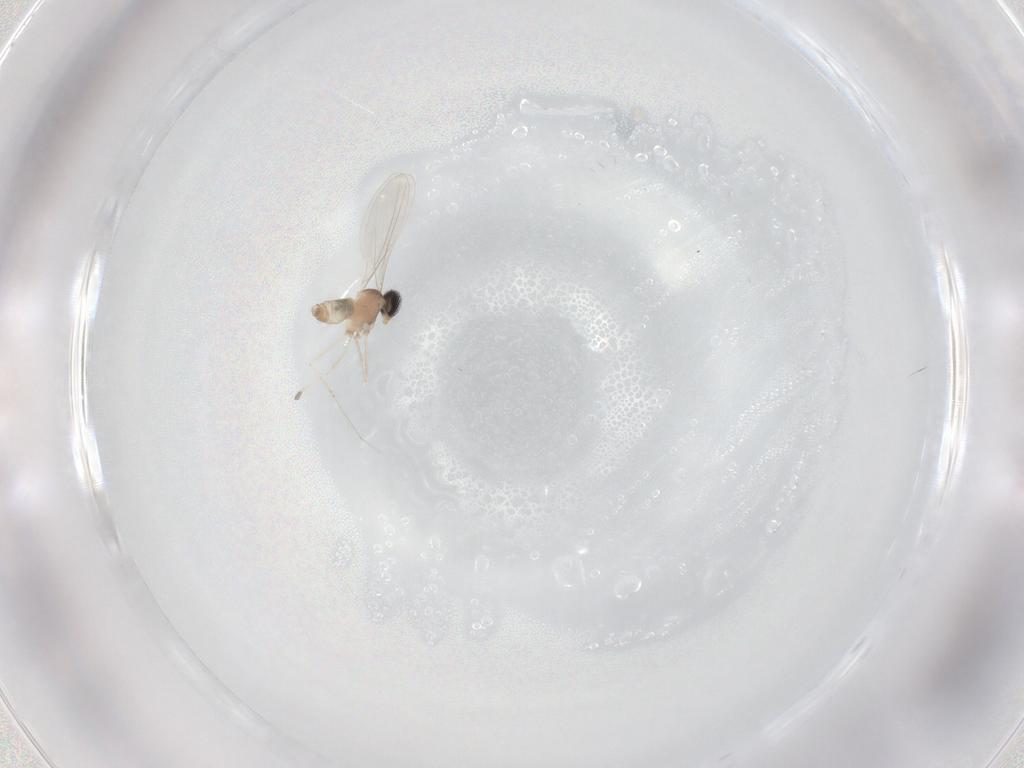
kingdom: Animalia
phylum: Arthropoda
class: Insecta
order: Diptera
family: Cecidomyiidae
